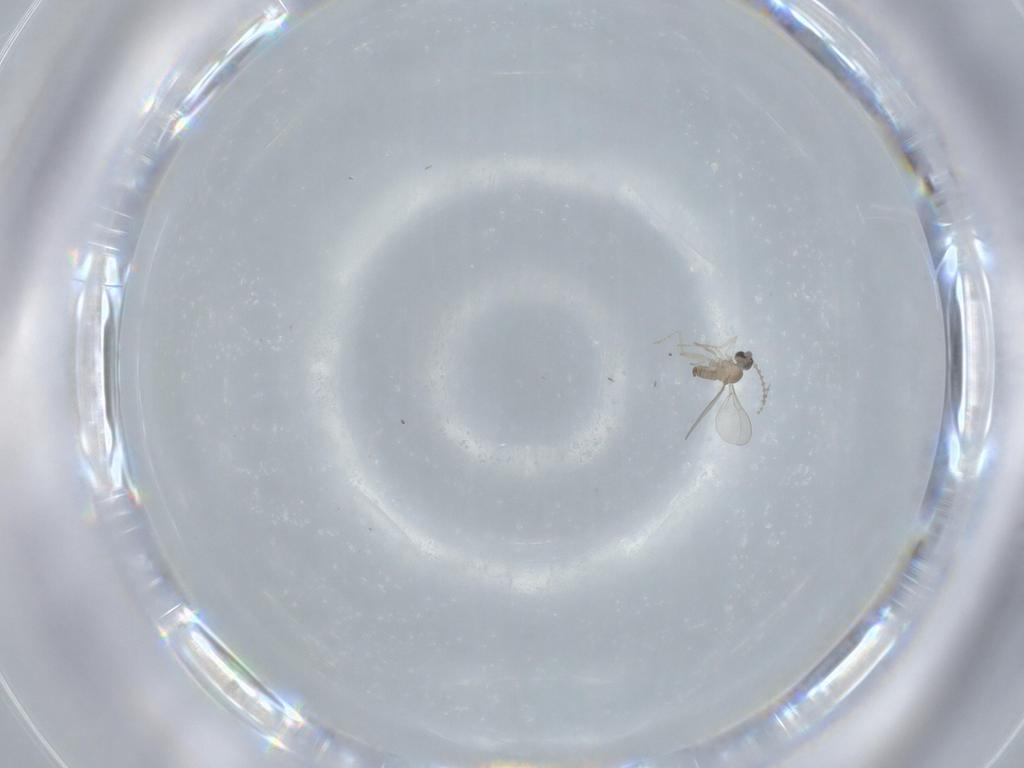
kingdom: Animalia
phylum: Arthropoda
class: Insecta
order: Diptera
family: Cecidomyiidae
